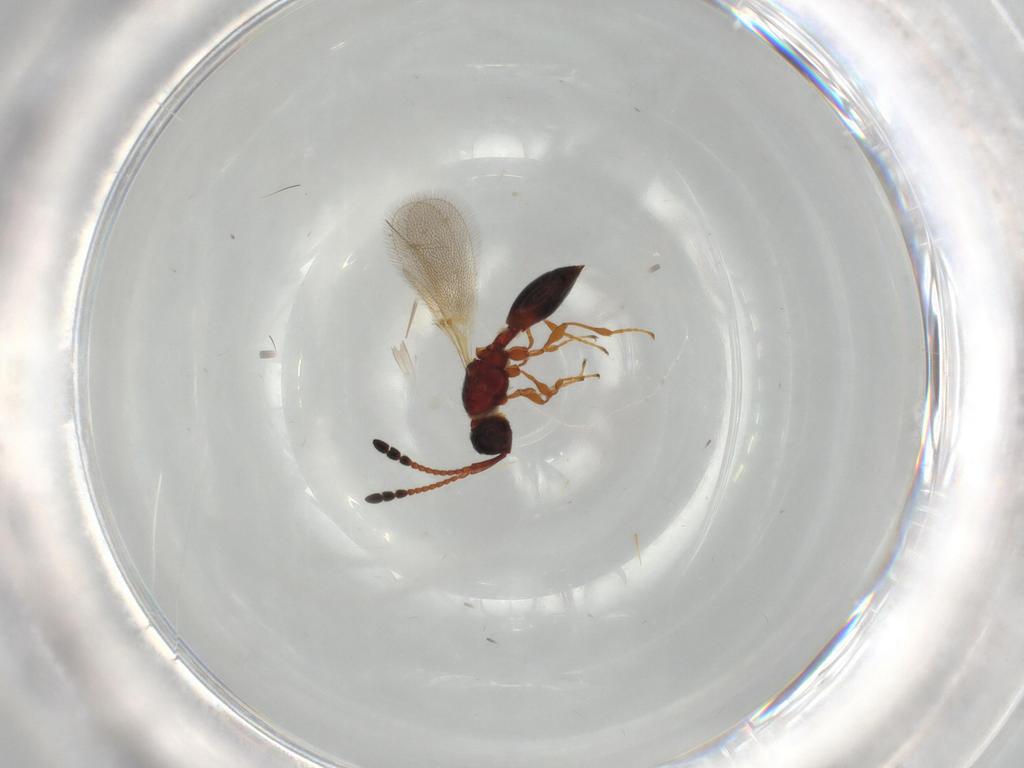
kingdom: Animalia
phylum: Arthropoda
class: Insecta
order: Hymenoptera
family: Diapriidae
